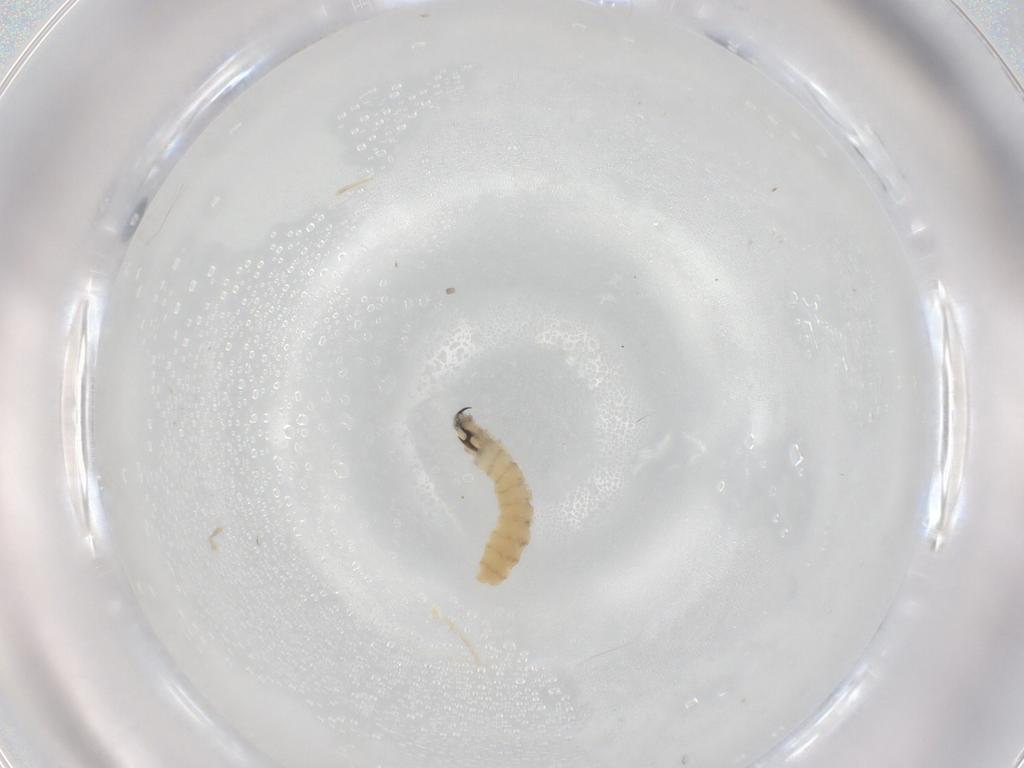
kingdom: Animalia
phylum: Arthropoda
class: Insecta
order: Diptera
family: Sarcophagidae
